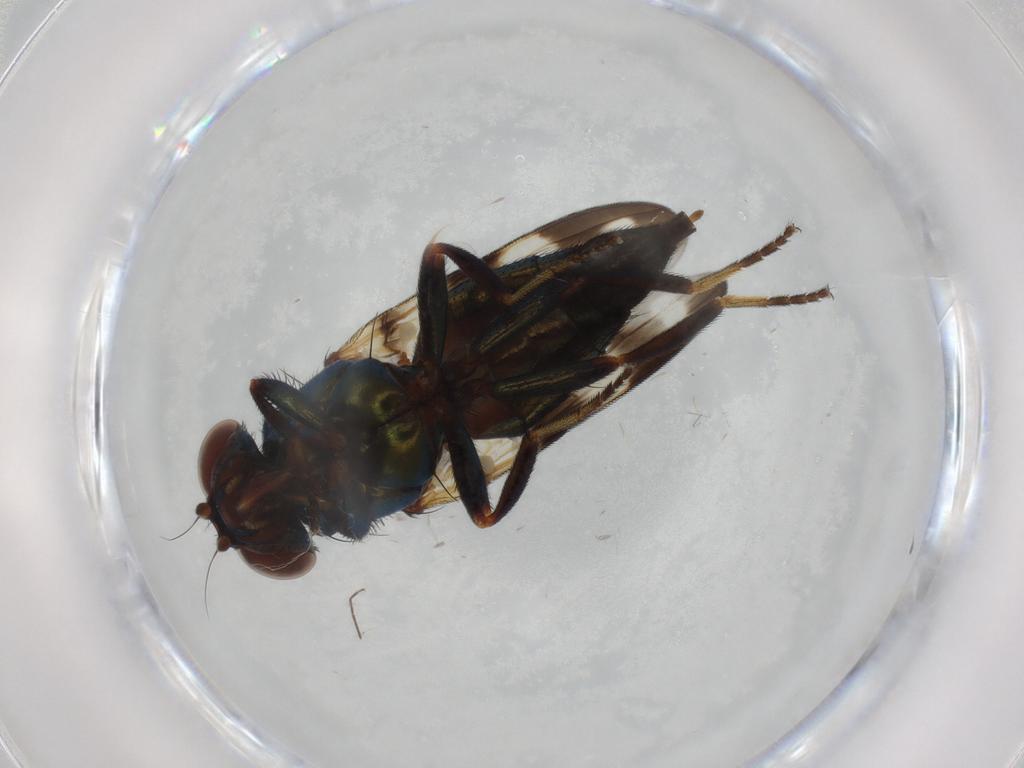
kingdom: Animalia
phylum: Arthropoda
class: Insecta
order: Diptera
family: Ulidiidae
